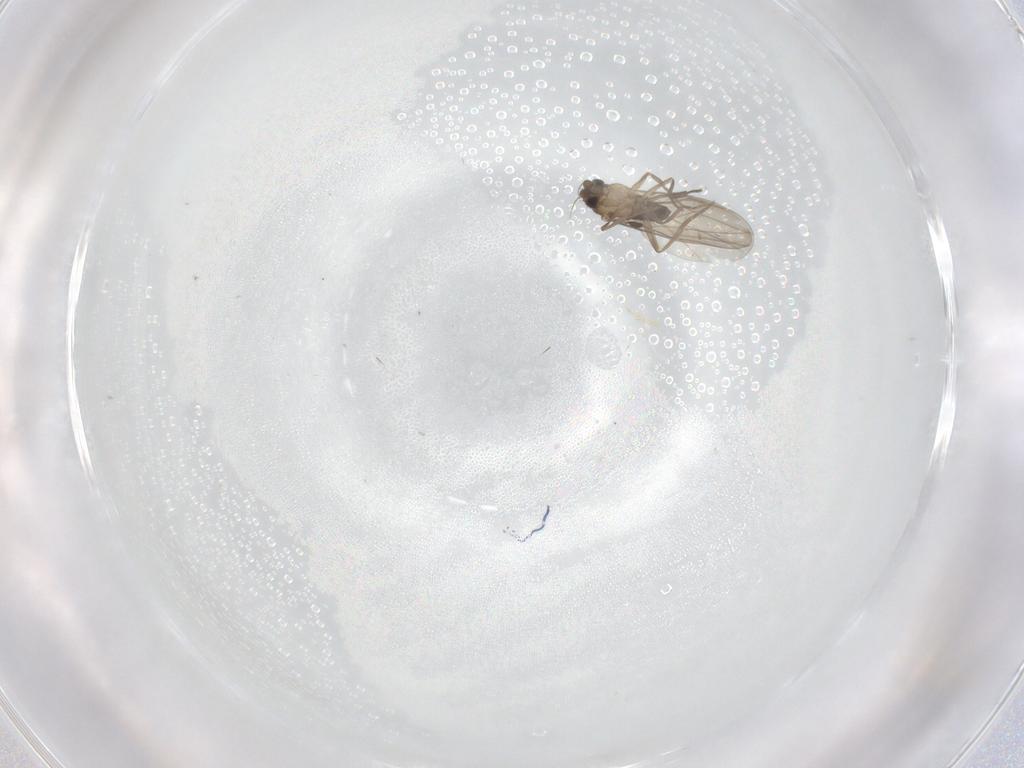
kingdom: Animalia
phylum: Arthropoda
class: Insecta
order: Diptera
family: Phoridae
